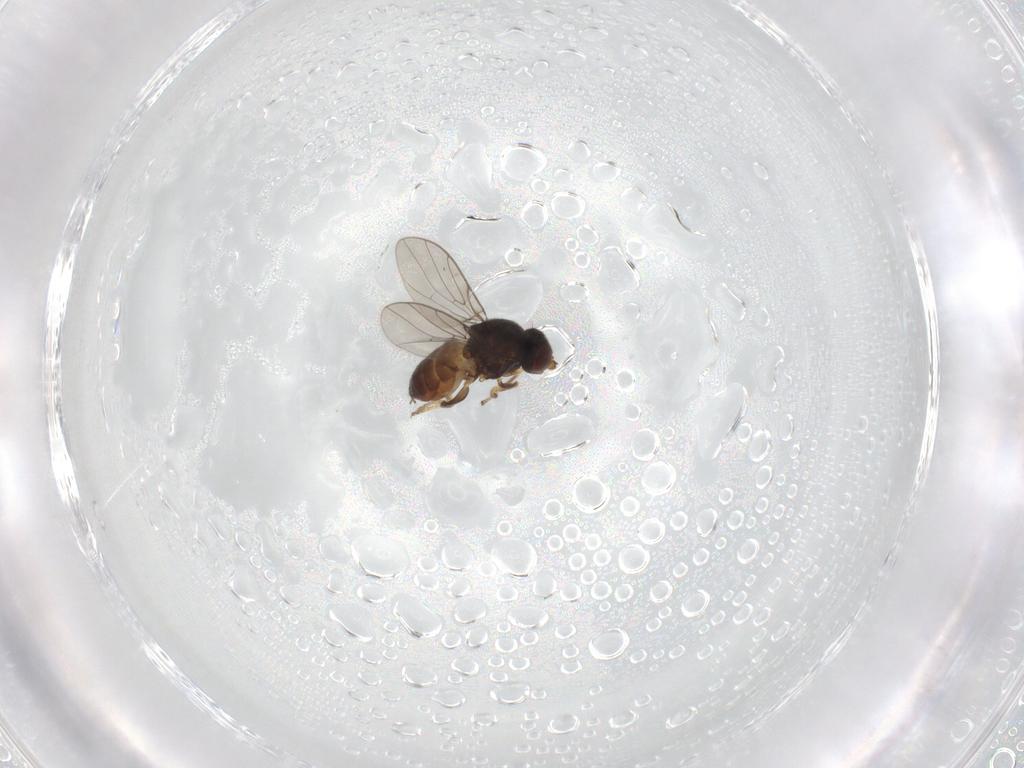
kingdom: Animalia
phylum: Arthropoda
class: Insecta
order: Diptera
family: Chloropidae
